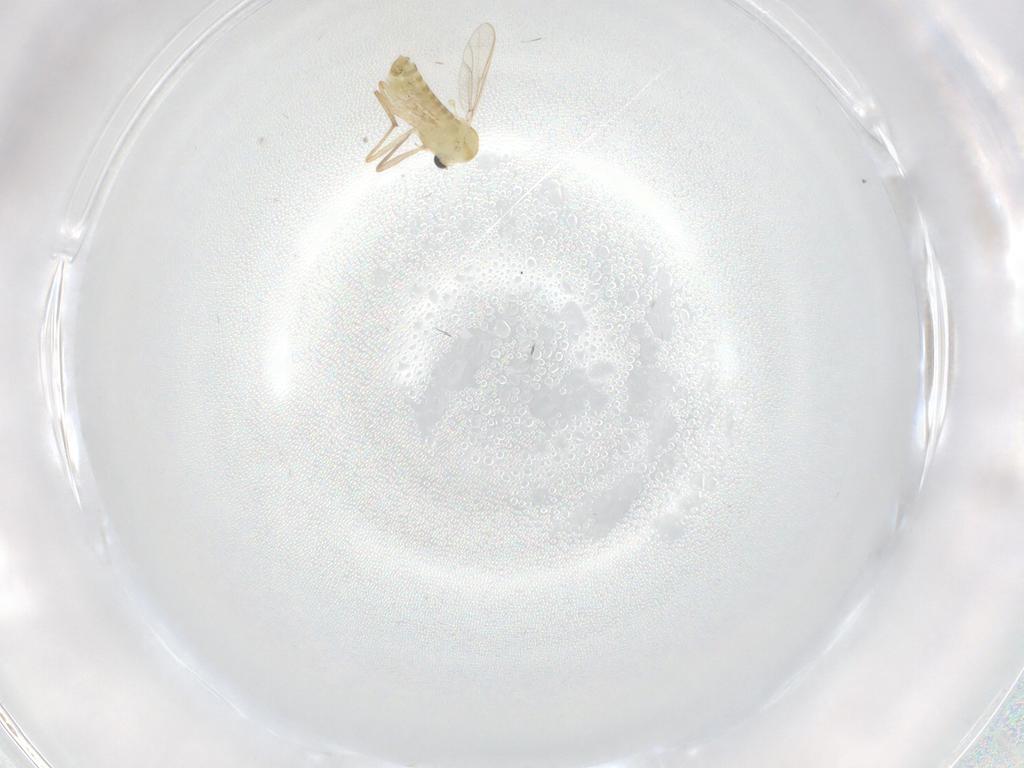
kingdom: Animalia
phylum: Arthropoda
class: Insecta
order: Diptera
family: Chironomidae
